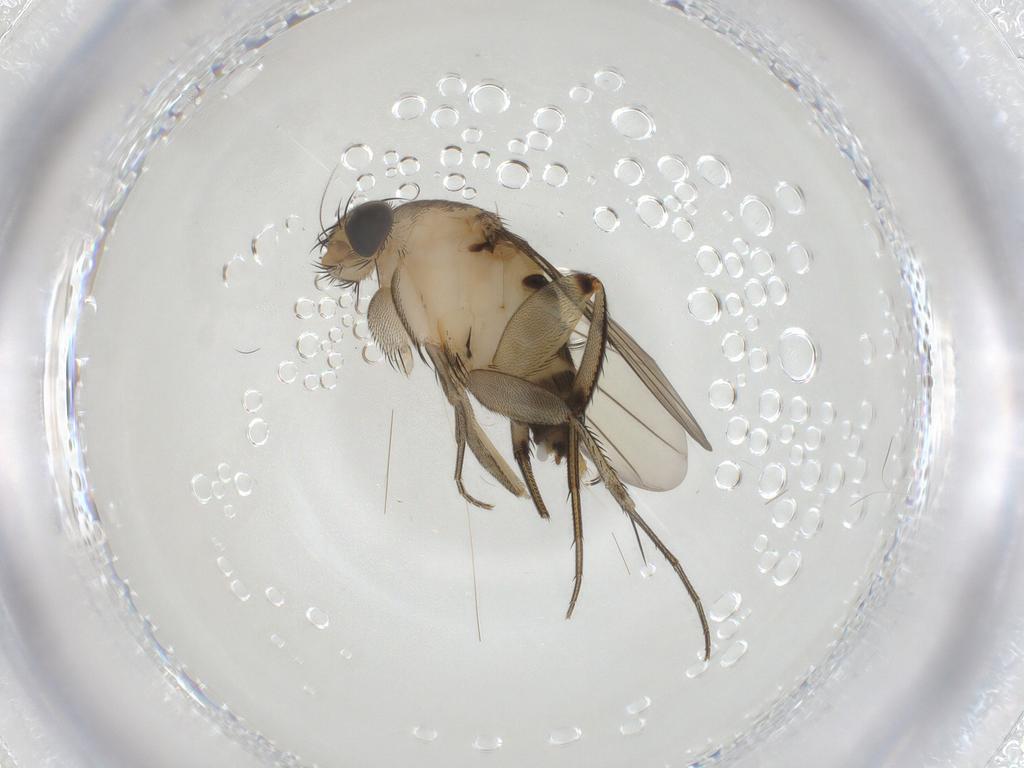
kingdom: Animalia
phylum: Arthropoda
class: Insecta
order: Diptera
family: Phoridae
